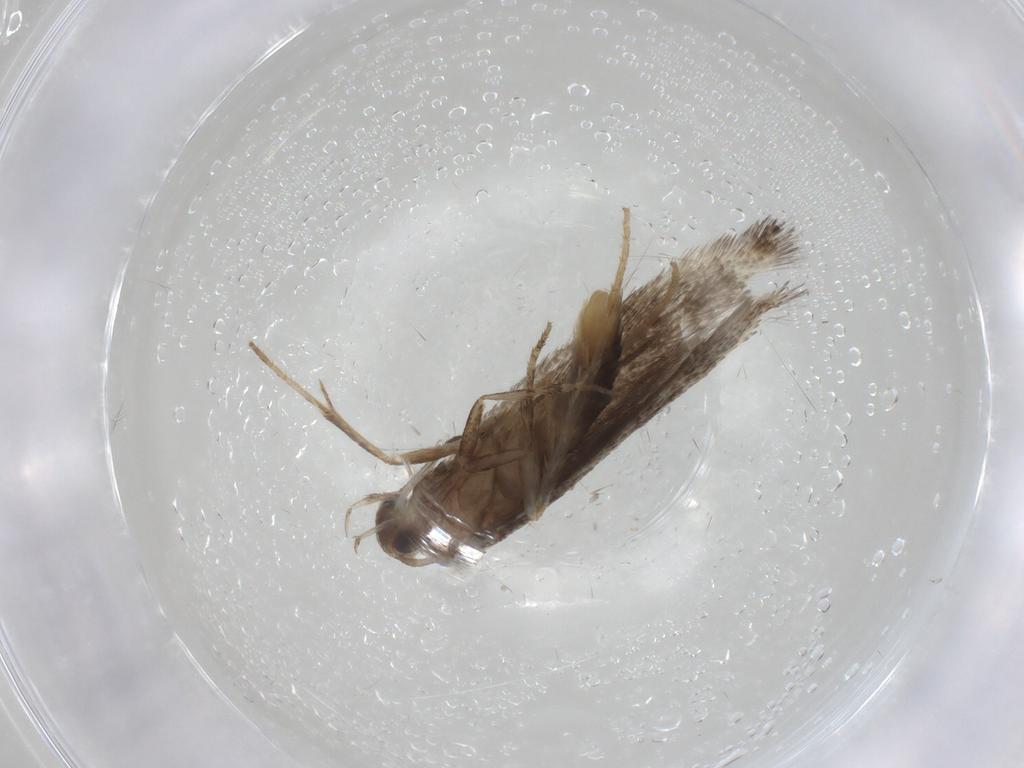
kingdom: Animalia
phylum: Arthropoda
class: Insecta
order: Lepidoptera
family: Elachistidae
